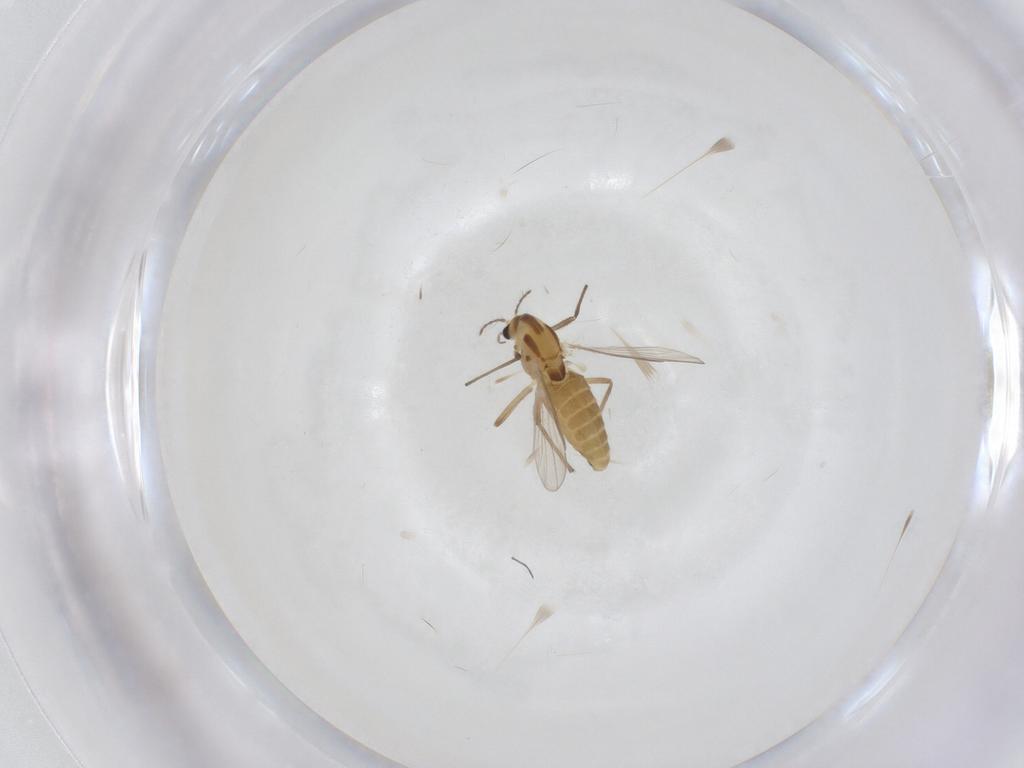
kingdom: Animalia
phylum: Arthropoda
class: Insecta
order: Diptera
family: Chironomidae
